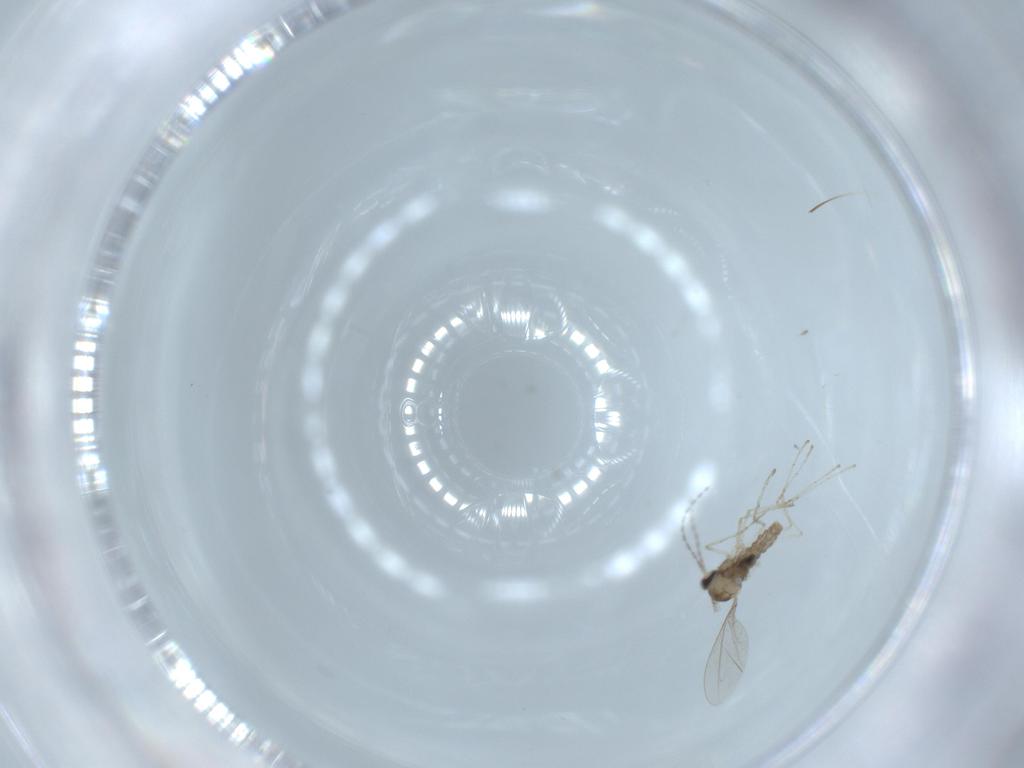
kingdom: Animalia
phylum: Arthropoda
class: Insecta
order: Diptera
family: Cecidomyiidae
